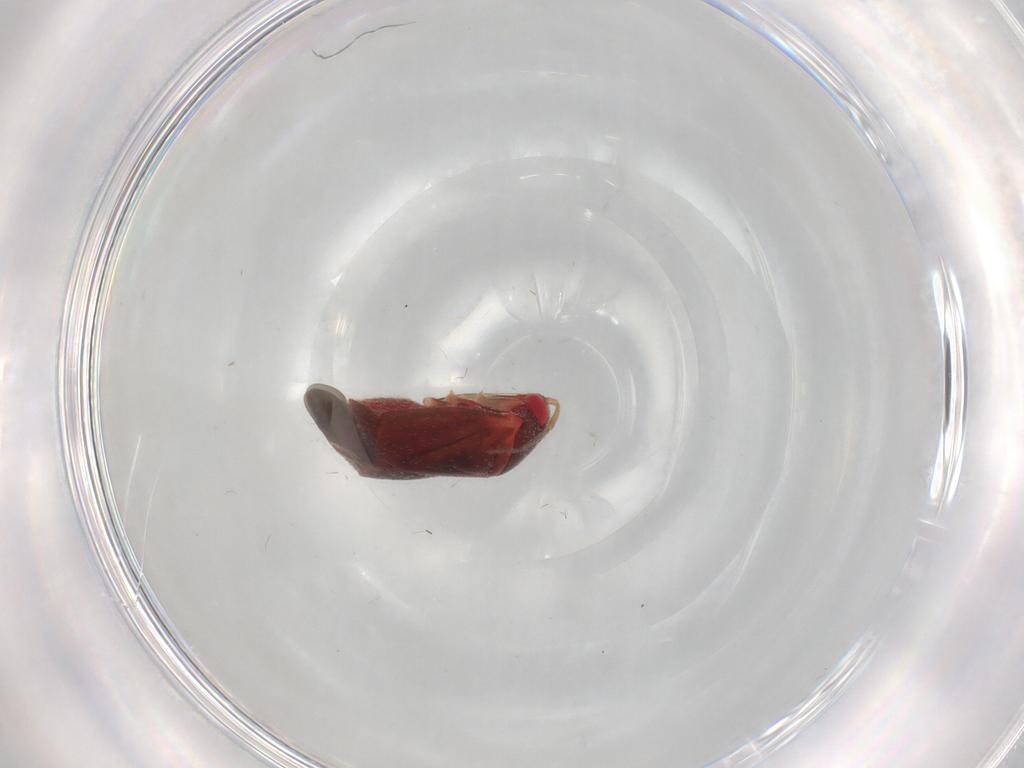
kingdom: Animalia
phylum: Arthropoda
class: Insecta
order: Hemiptera
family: Miridae
